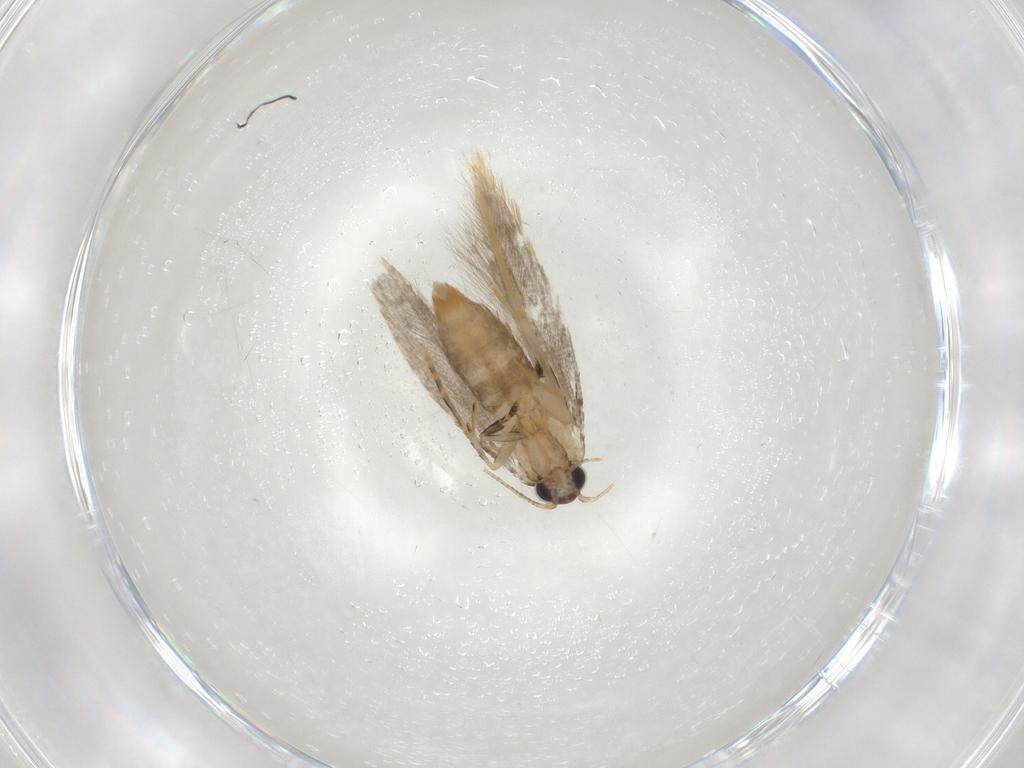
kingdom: Animalia
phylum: Arthropoda
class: Insecta
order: Lepidoptera
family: Tineidae
